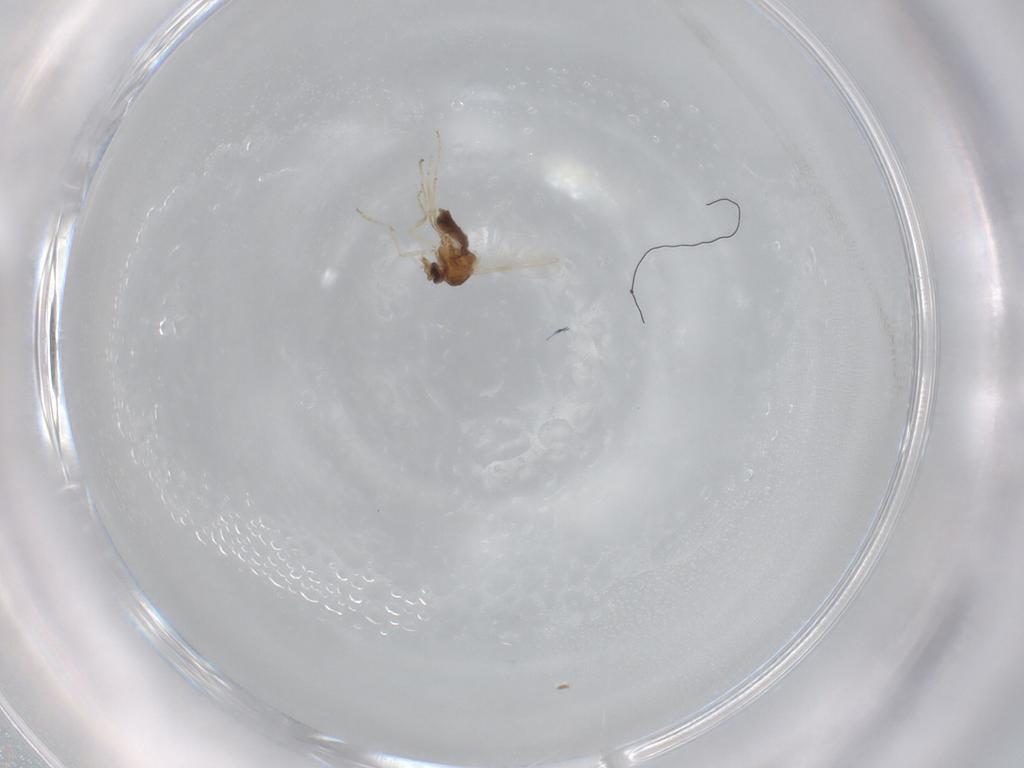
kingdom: Animalia
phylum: Arthropoda
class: Insecta
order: Diptera
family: Ceratopogonidae
